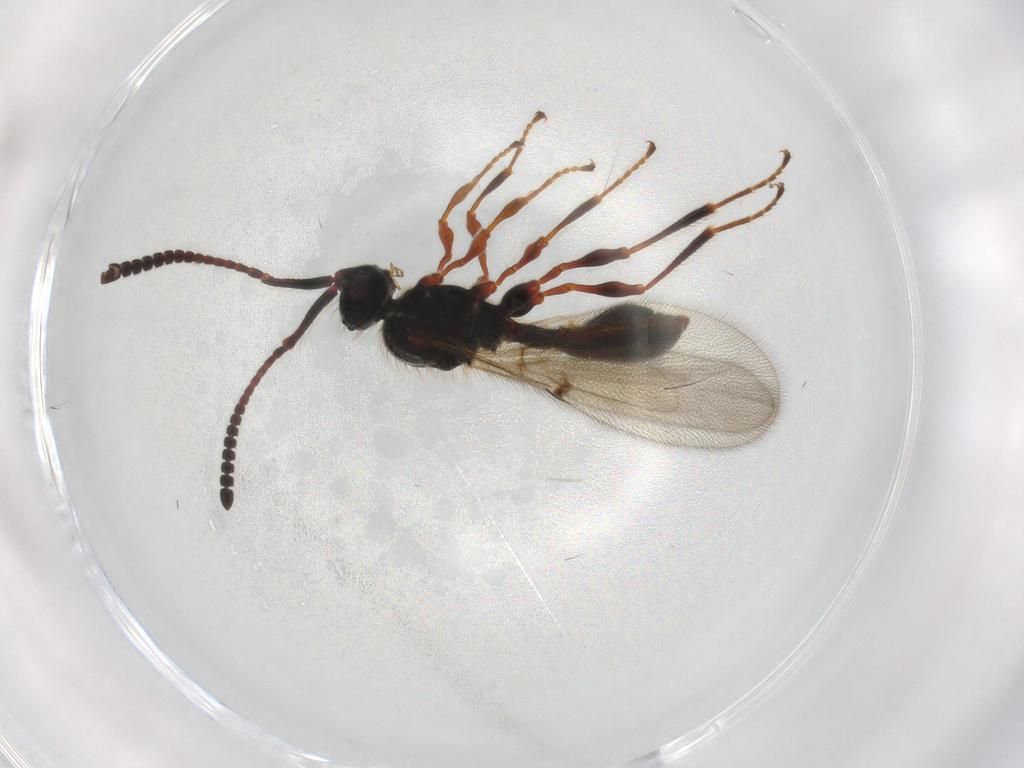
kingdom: Animalia
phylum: Arthropoda
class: Insecta
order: Hymenoptera
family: Diapriidae
